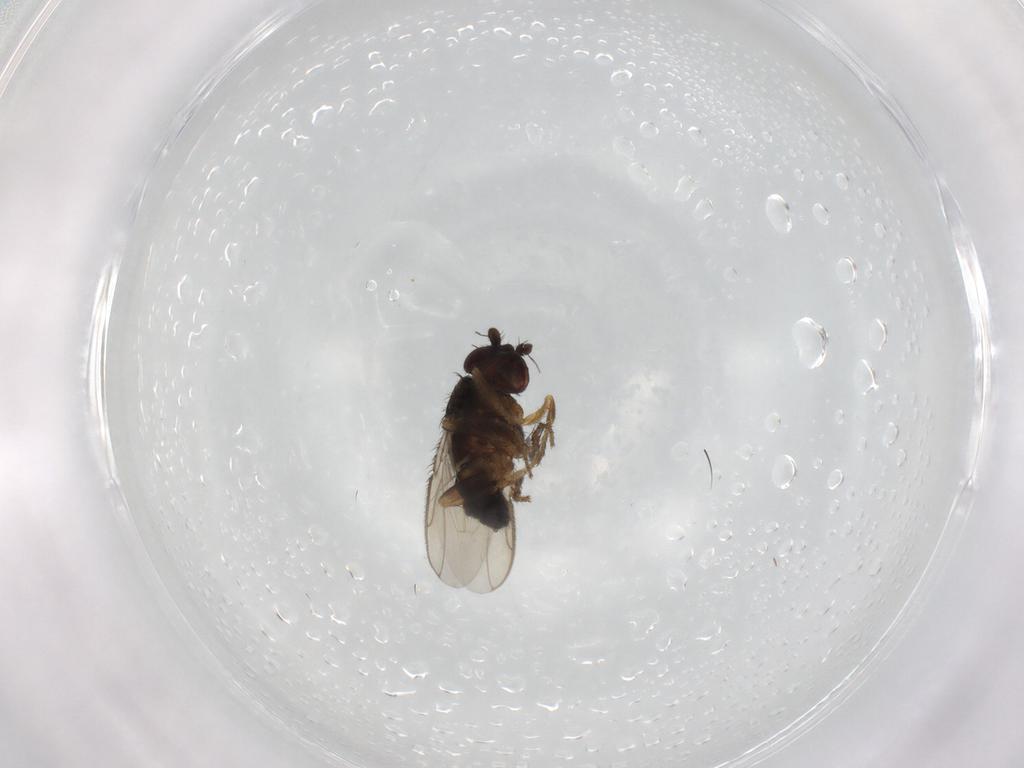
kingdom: Animalia
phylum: Arthropoda
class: Insecta
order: Diptera
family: Sphaeroceridae
